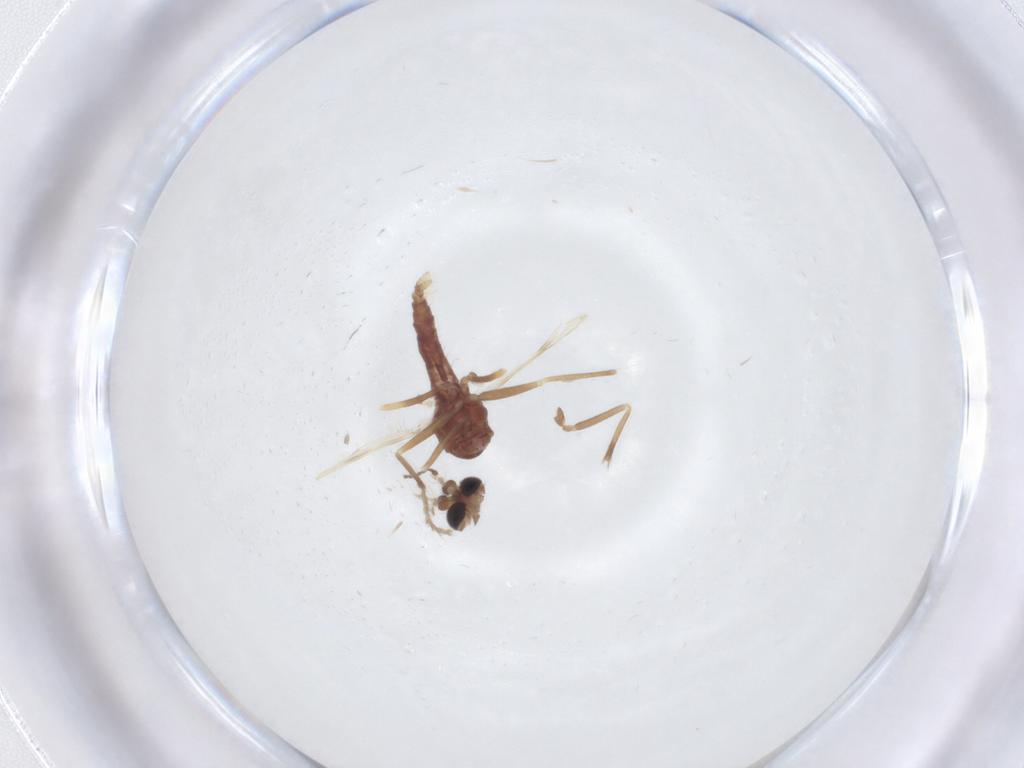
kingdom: Animalia
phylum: Arthropoda
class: Insecta
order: Diptera
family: Corethrellidae
